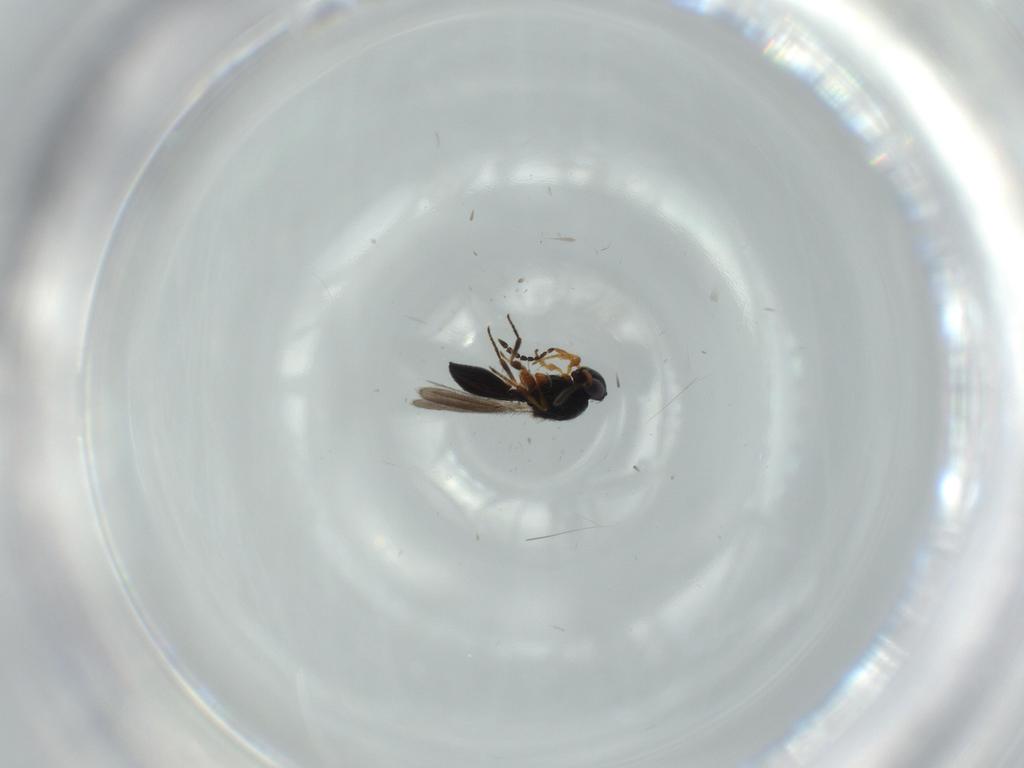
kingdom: Animalia
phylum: Arthropoda
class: Insecta
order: Hymenoptera
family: Platygastridae
